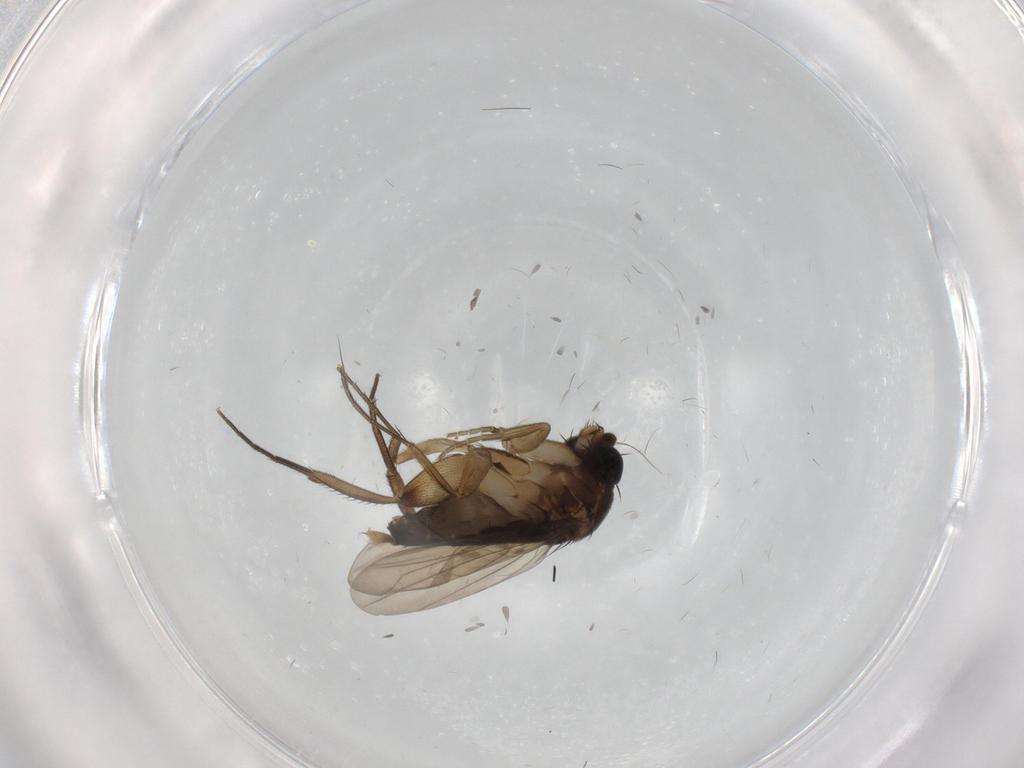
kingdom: Animalia
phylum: Arthropoda
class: Insecta
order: Diptera
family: Phoridae
